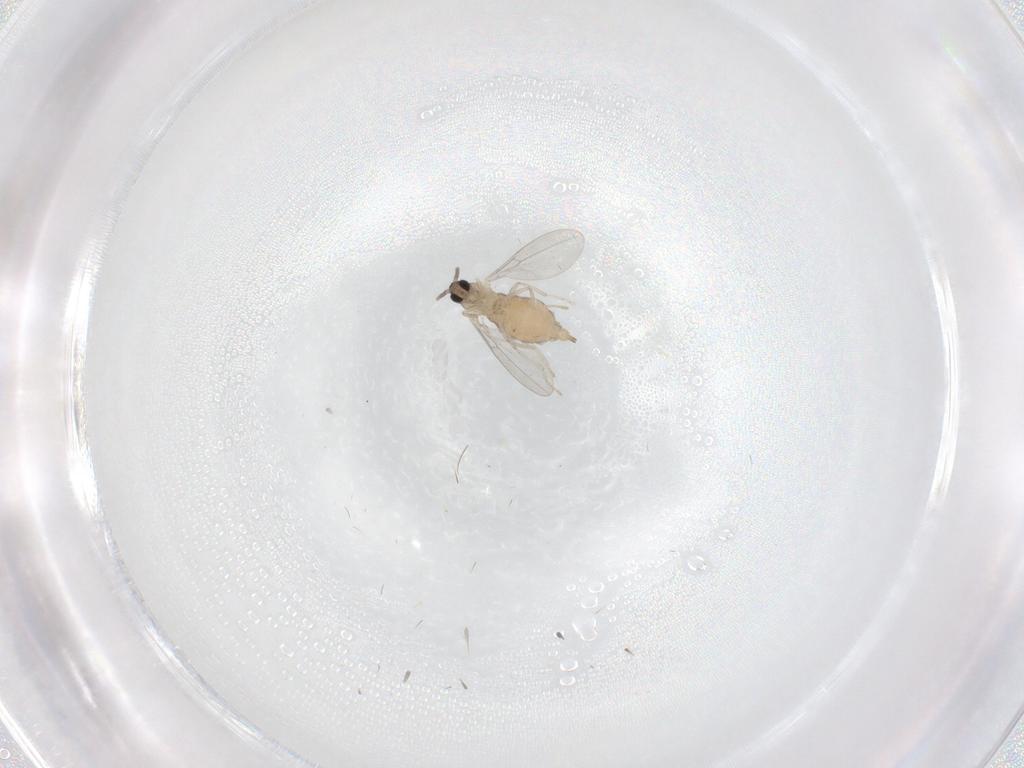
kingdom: Animalia
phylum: Arthropoda
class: Insecta
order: Diptera
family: Cecidomyiidae
